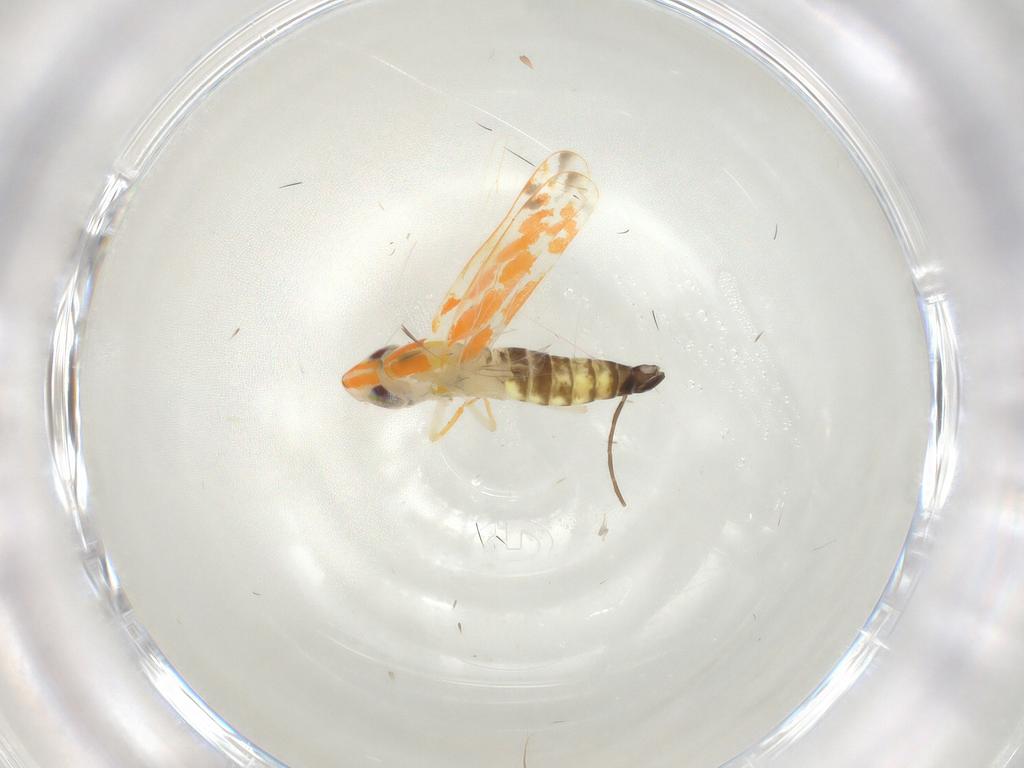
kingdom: Animalia
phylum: Arthropoda
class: Insecta
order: Hemiptera
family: Cicadellidae
